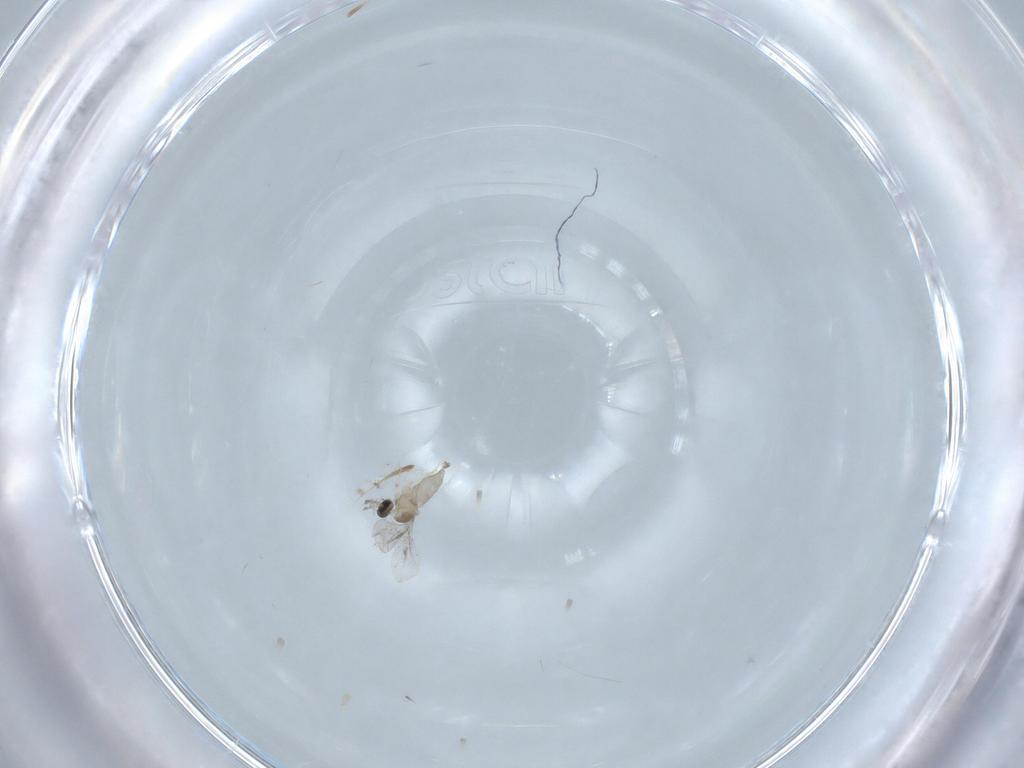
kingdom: Animalia
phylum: Arthropoda
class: Insecta
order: Diptera
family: Cecidomyiidae
